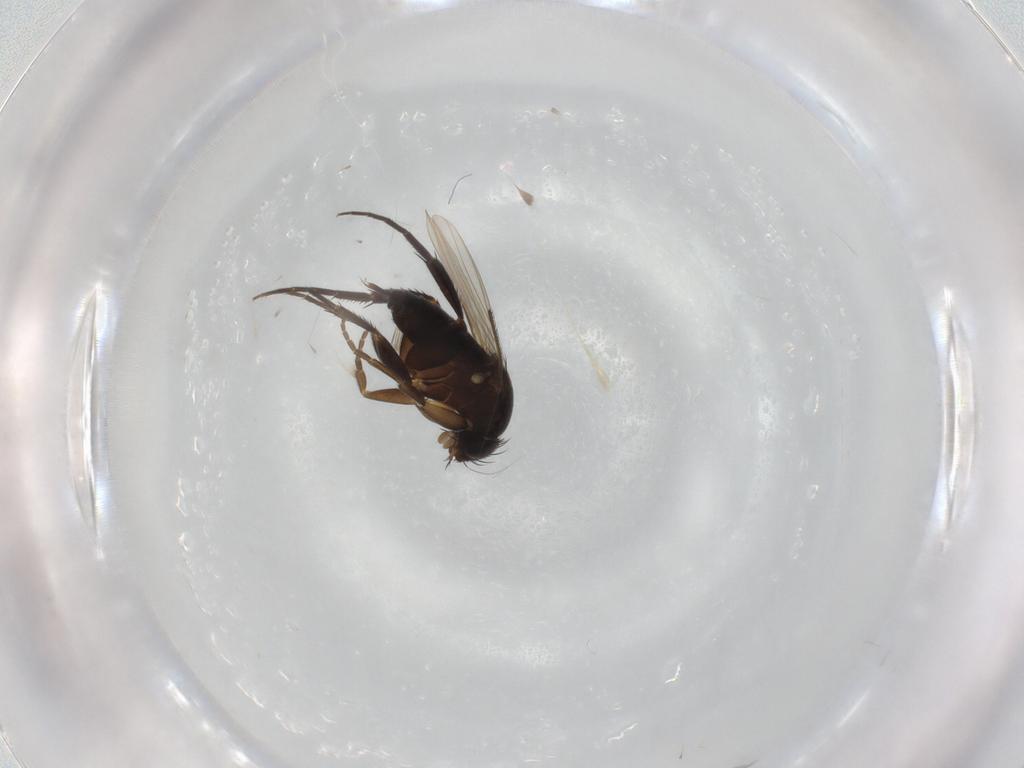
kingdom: Animalia
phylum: Arthropoda
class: Insecta
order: Diptera
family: Phoridae
